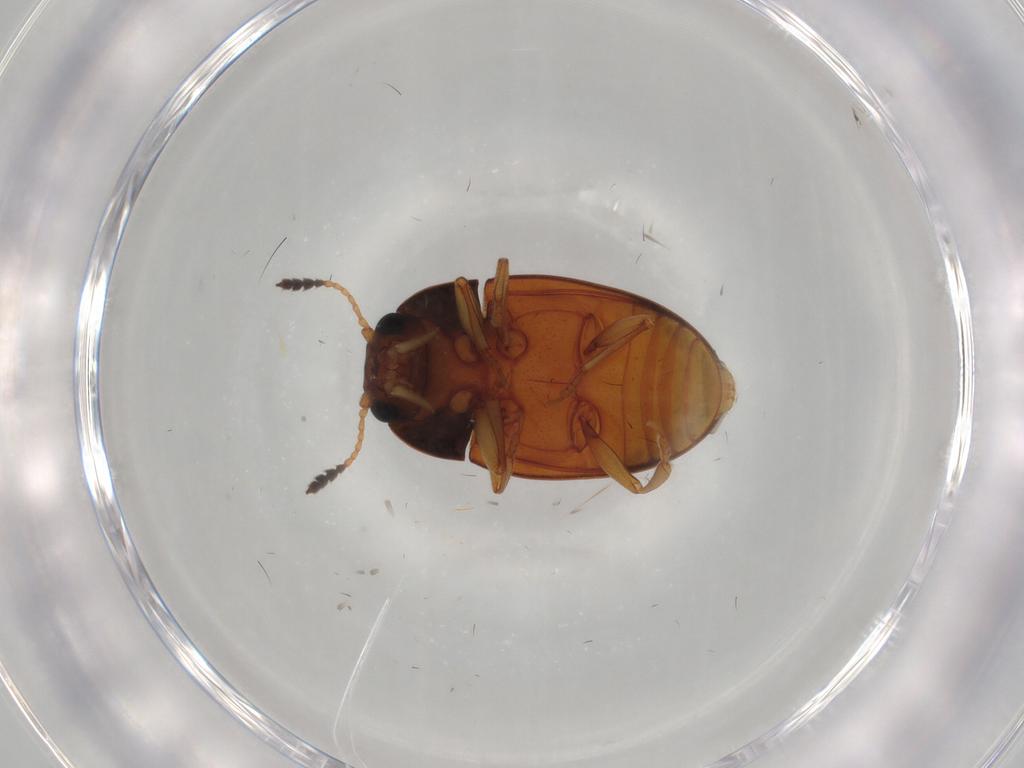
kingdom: Animalia
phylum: Arthropoda
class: Insecta
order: Coleoptera
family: Erotylidae
